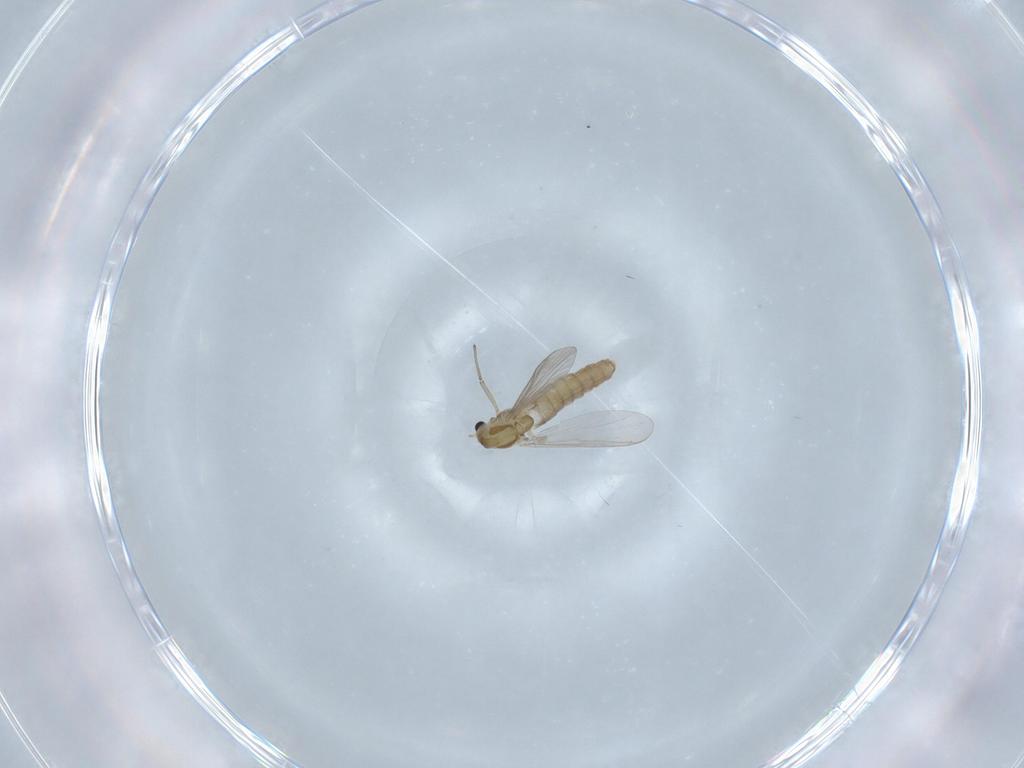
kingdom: Animalia
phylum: Arthropoda
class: Insecta
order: Diptera
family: Chironomidae
